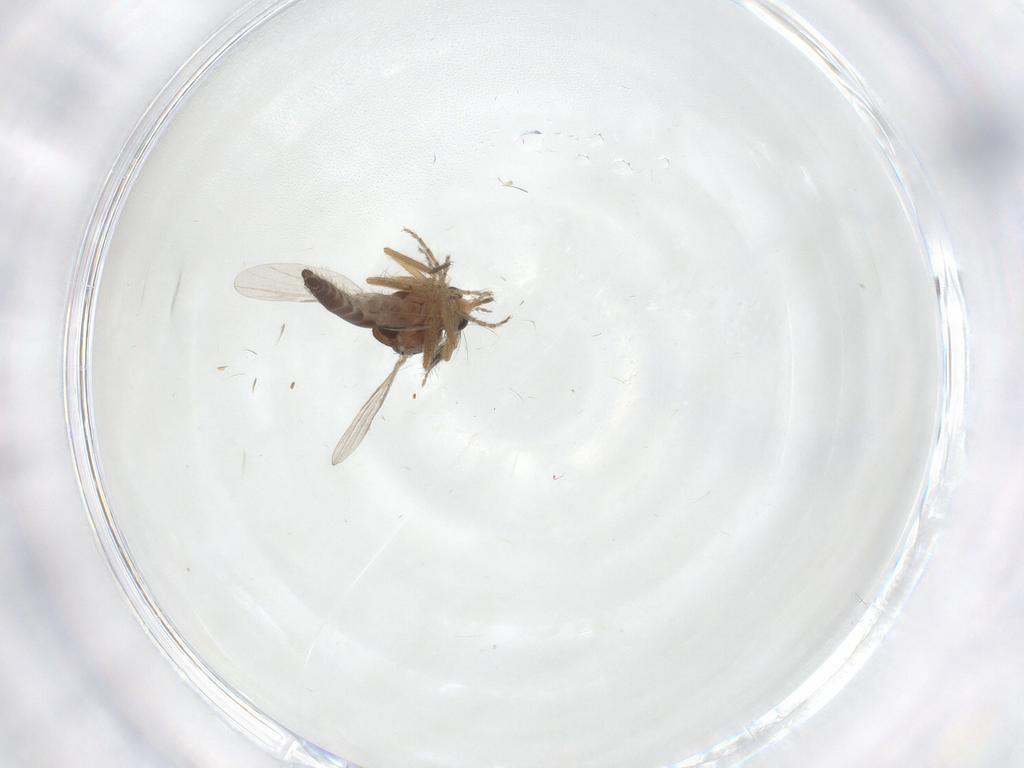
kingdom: Animalia
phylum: Arthropoda
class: Insecta
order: Diptera
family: Ceratopogonidae
